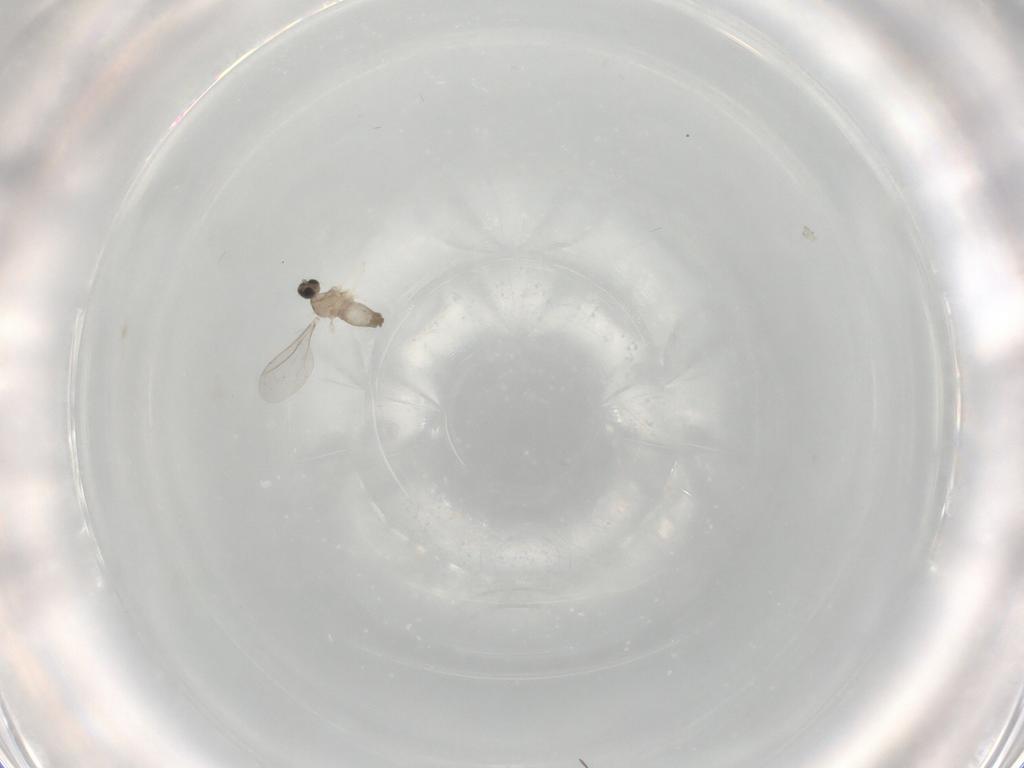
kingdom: Animalia
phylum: Arthropoda
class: Insecta
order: Diptera
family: Cecidomyiidae
